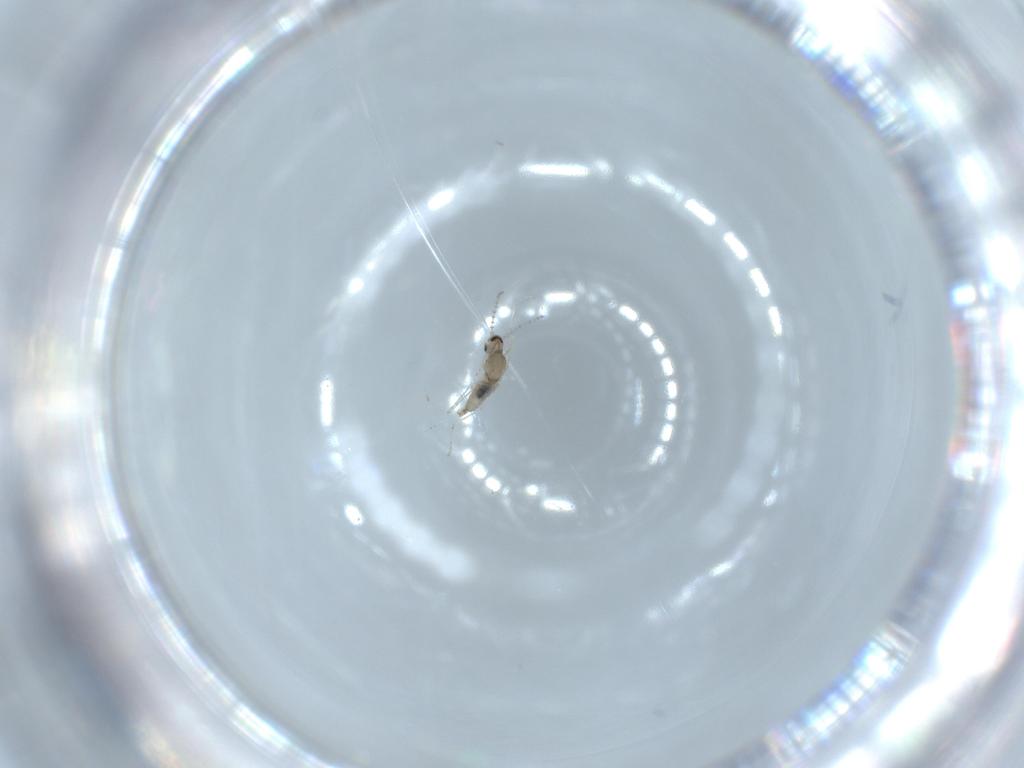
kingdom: Animalia
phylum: Arthropoda
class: Insecta
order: Diptera
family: Cecidomyiidae
